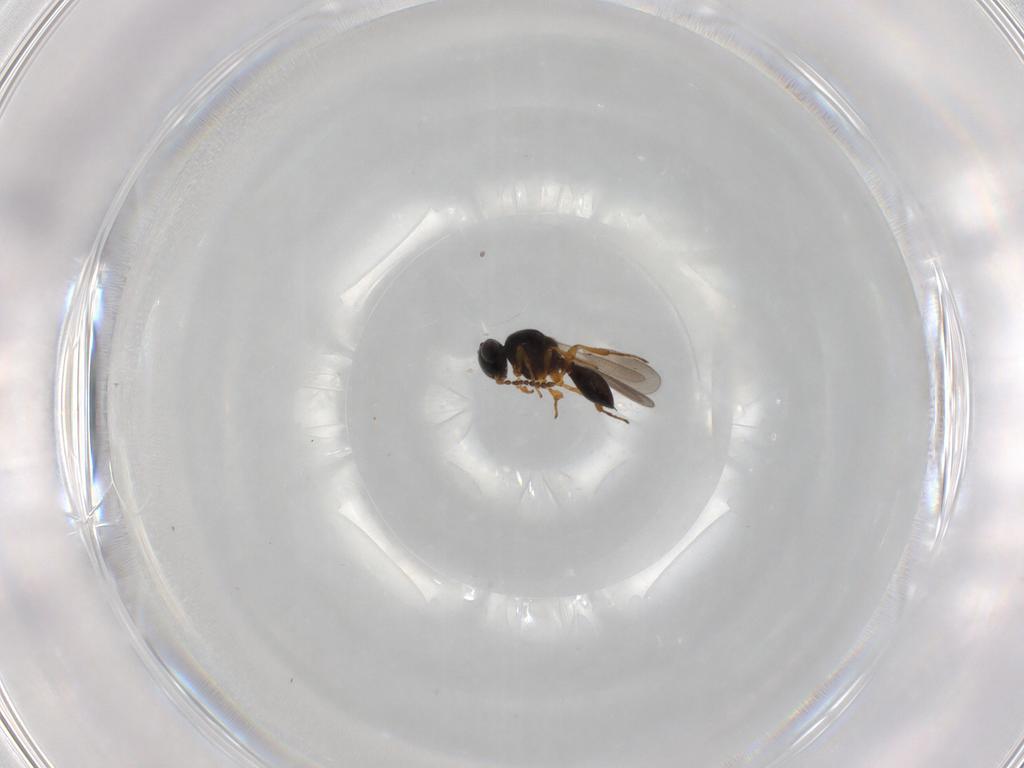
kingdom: Animalia
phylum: Arthropoda
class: Insecta
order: Hymenoptera
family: Platygastridae
